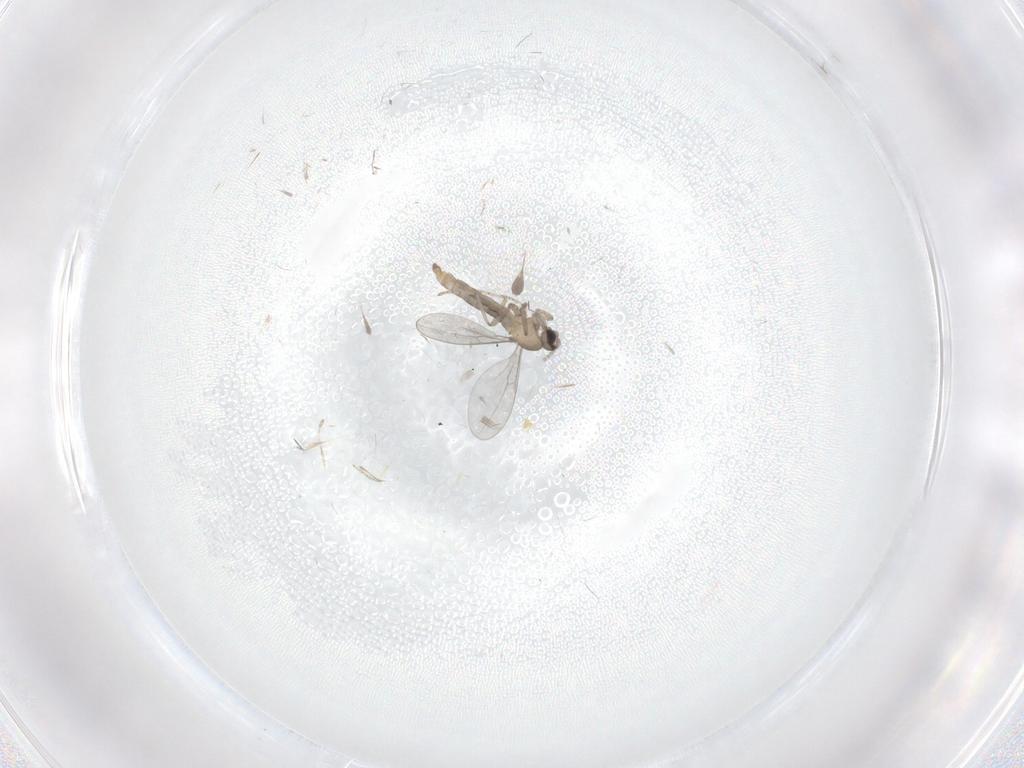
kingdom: Animalia
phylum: Arthropoda
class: Insecta
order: Diptera
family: Cecidomyiidae
